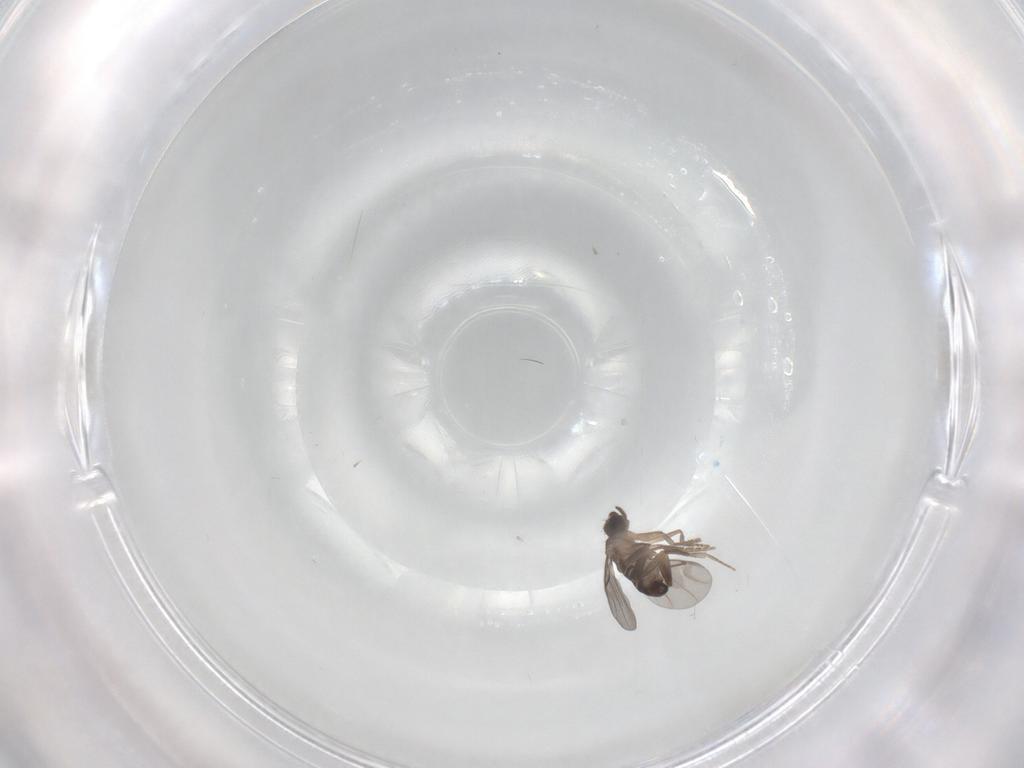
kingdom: Animalia
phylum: Arthropoda
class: Insecta
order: Diptera
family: Phoridae
